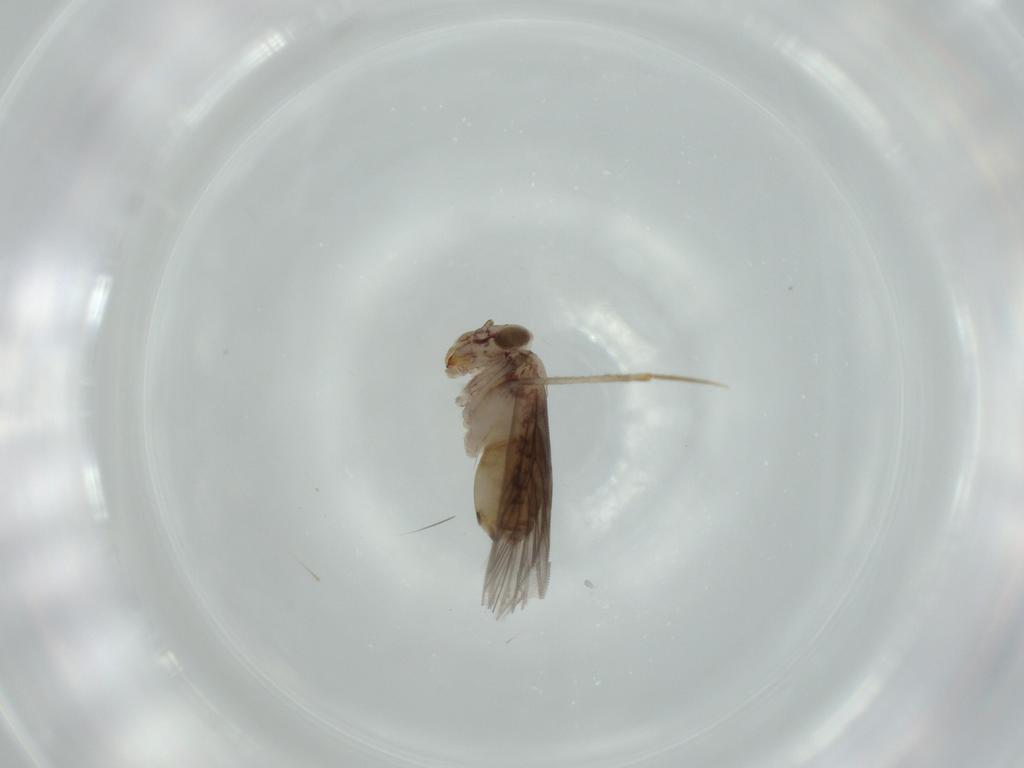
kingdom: Animalia
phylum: Arthropoda
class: Insecta
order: Psocodea
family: Lepidopsocidae
